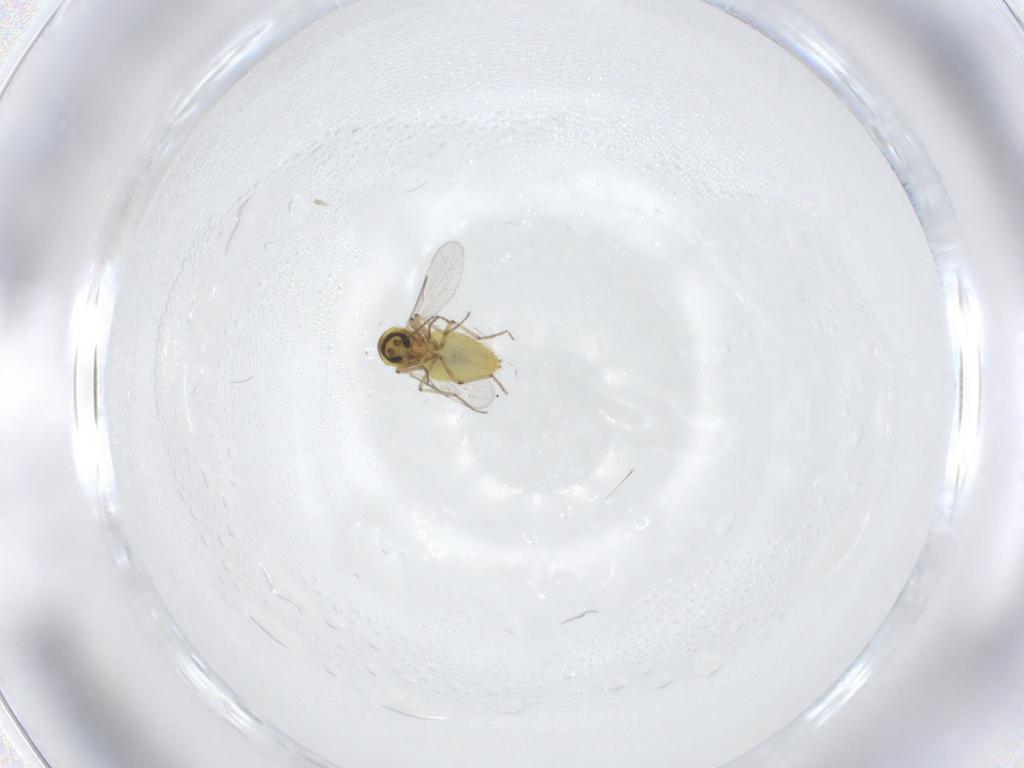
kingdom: Animalia
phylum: Arthropoda
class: Insecta
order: Diptera
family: Ceratopogonidae
